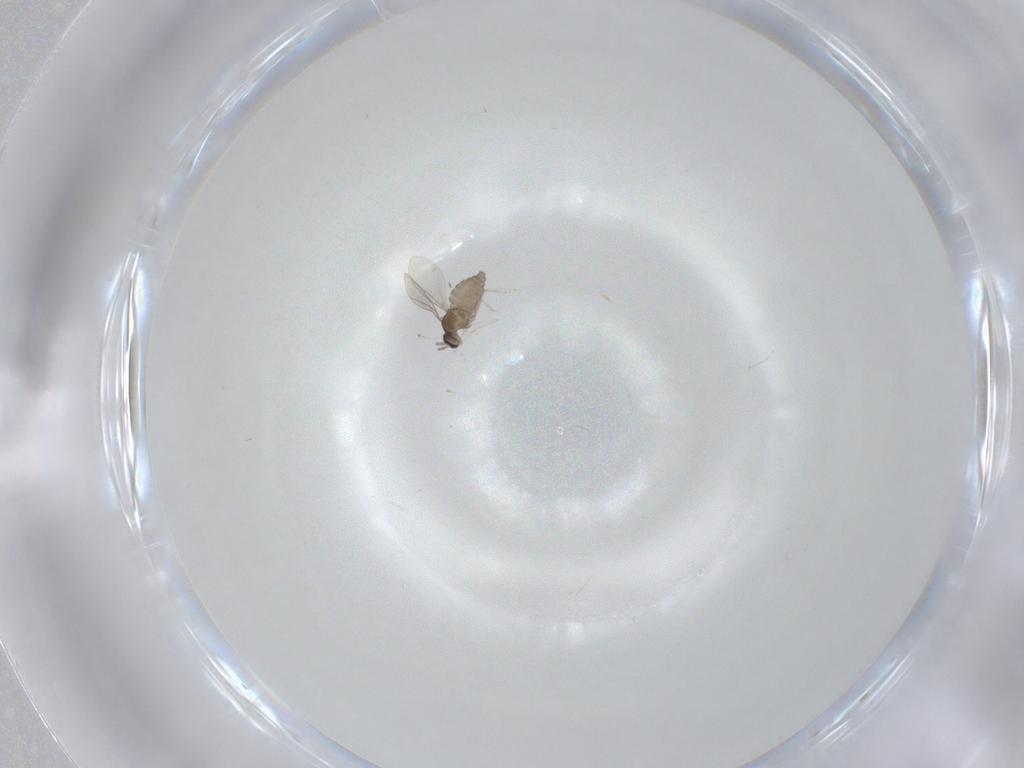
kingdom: Animalia
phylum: Arthropoda
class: Insecta
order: Diptera
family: Cecidomyiidae
